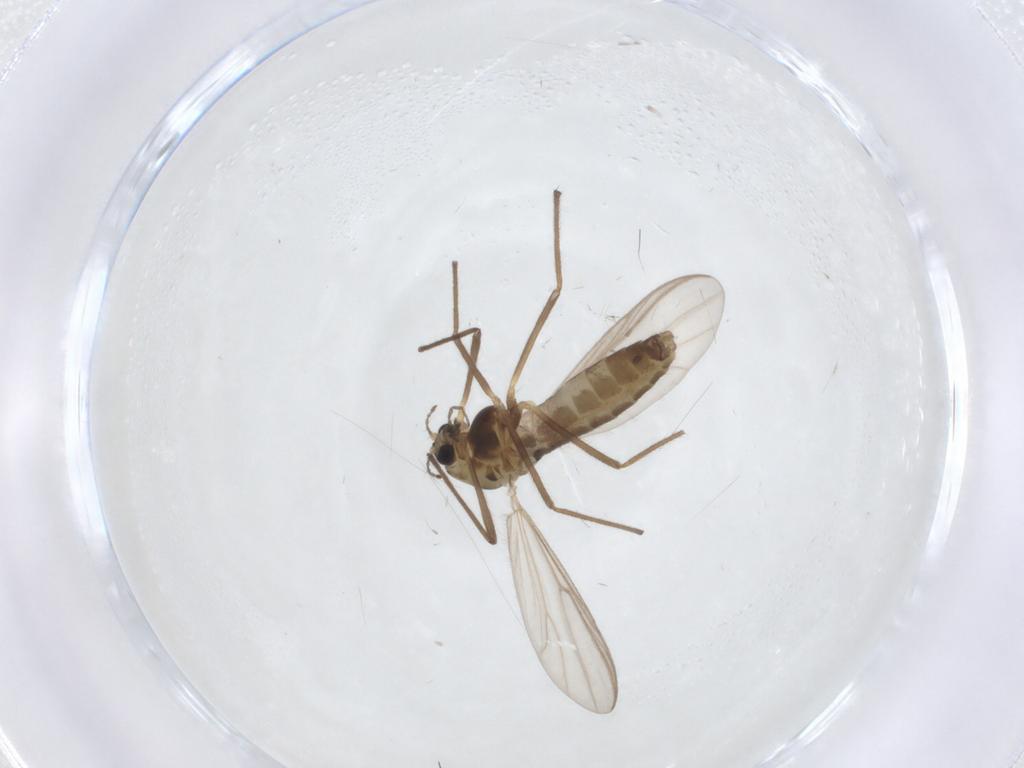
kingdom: Animalia
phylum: Arthropoda
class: Insecta
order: Diptera
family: Chironomidae
